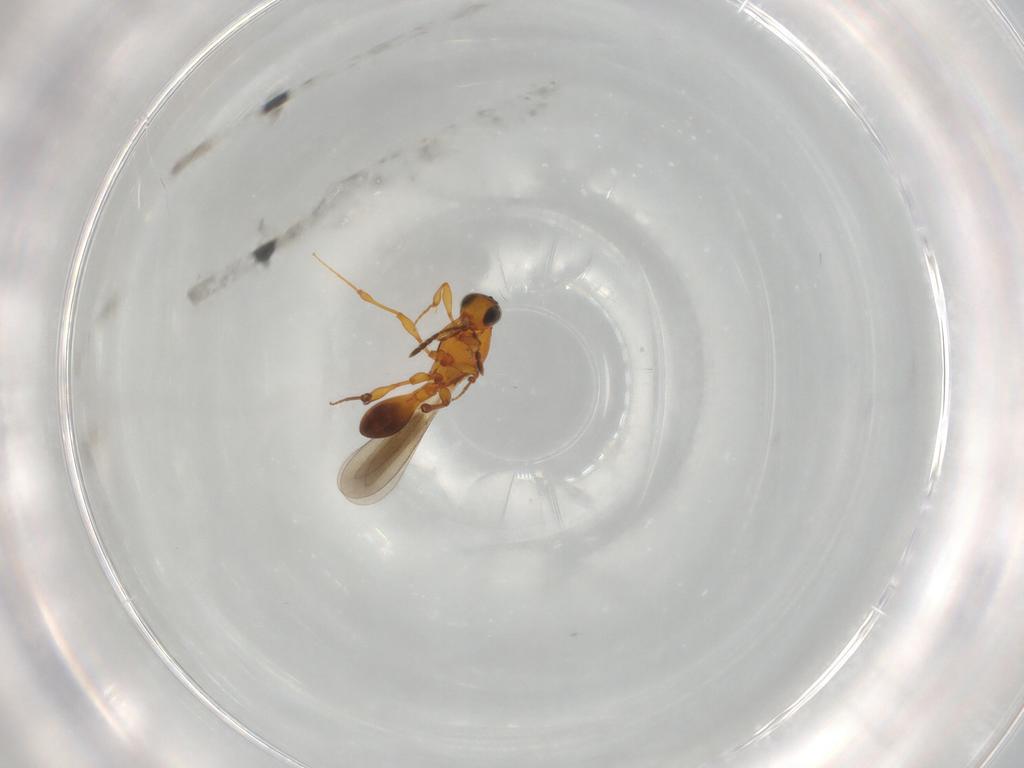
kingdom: Animalia
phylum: Arthropoda
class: Insecta
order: Hymenoptera
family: Platygastridae
